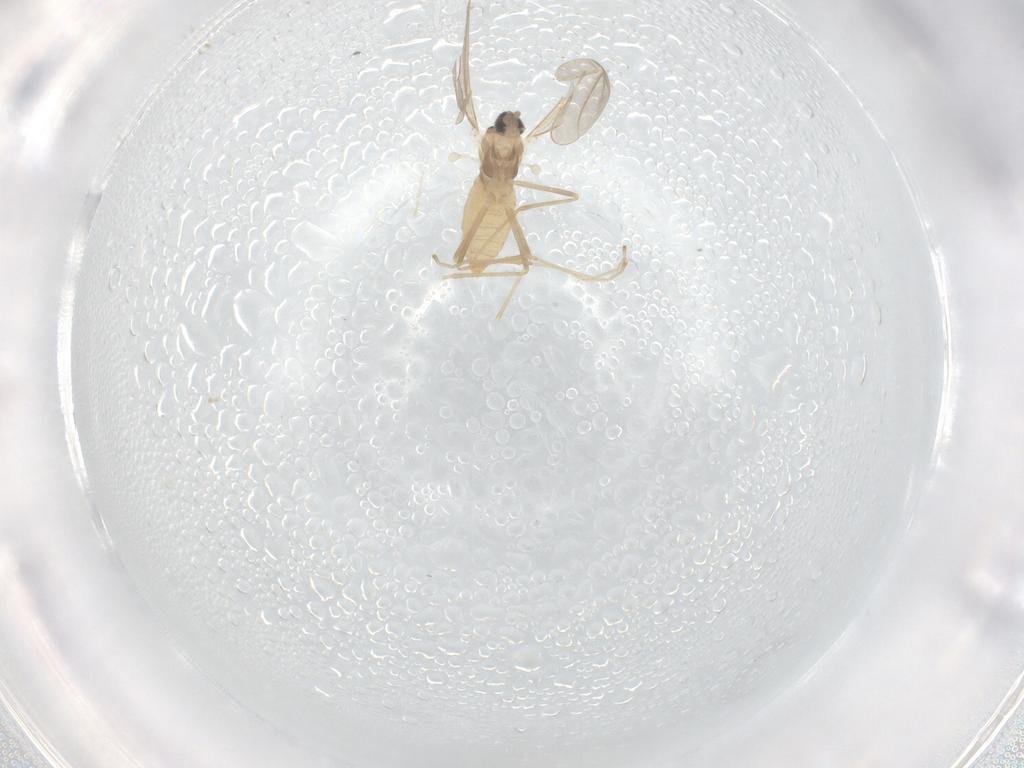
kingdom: Animalia
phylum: Arthropoda
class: Insecta
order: Diptera
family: Cecidomyiidae
